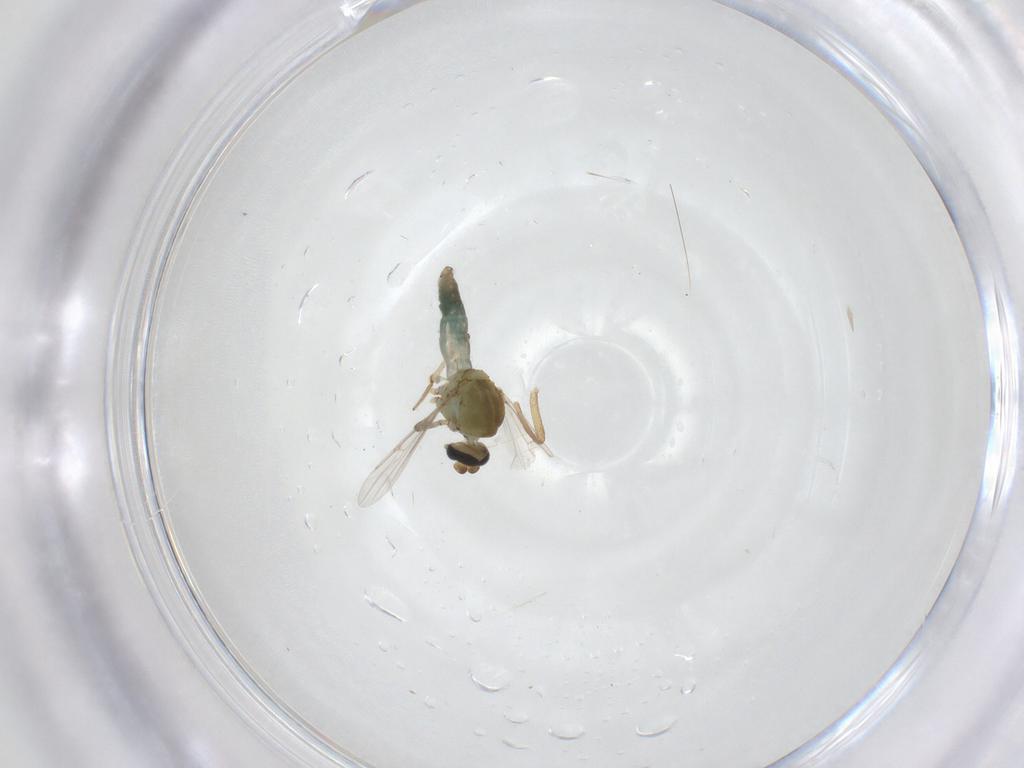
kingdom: Animalia
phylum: Arthropoda
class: Insecta
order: Diptera
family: Ceratopogonidae
